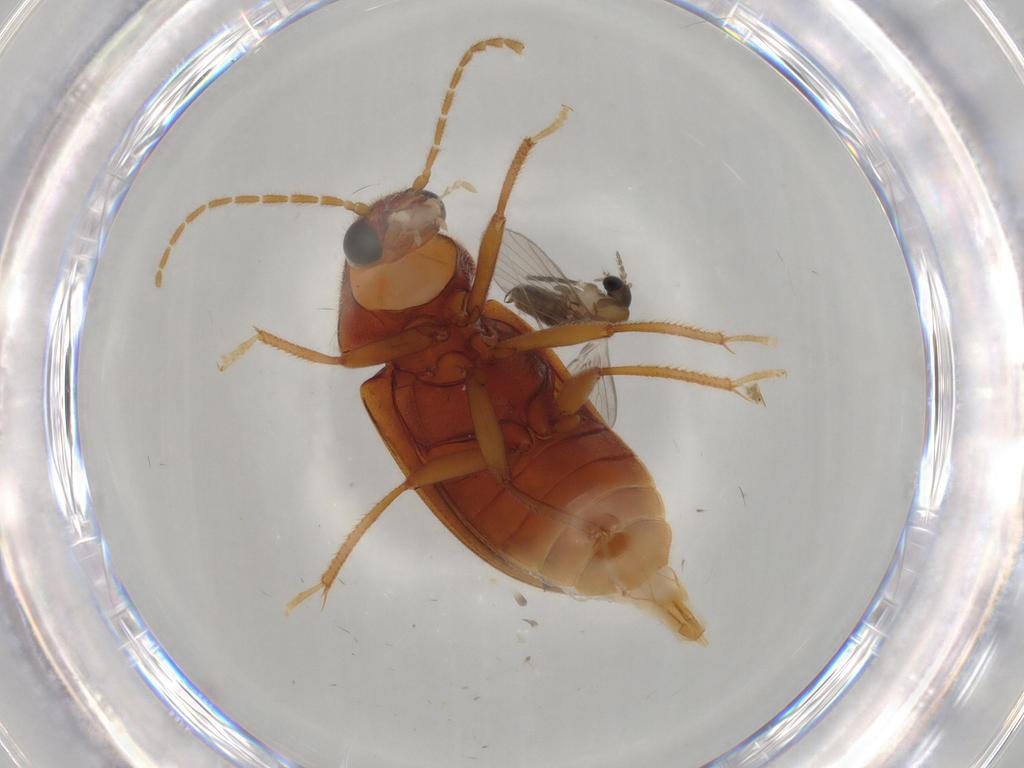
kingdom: Animalia
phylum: Arthropoda
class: Insecta
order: Diptera
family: Psychodidae
